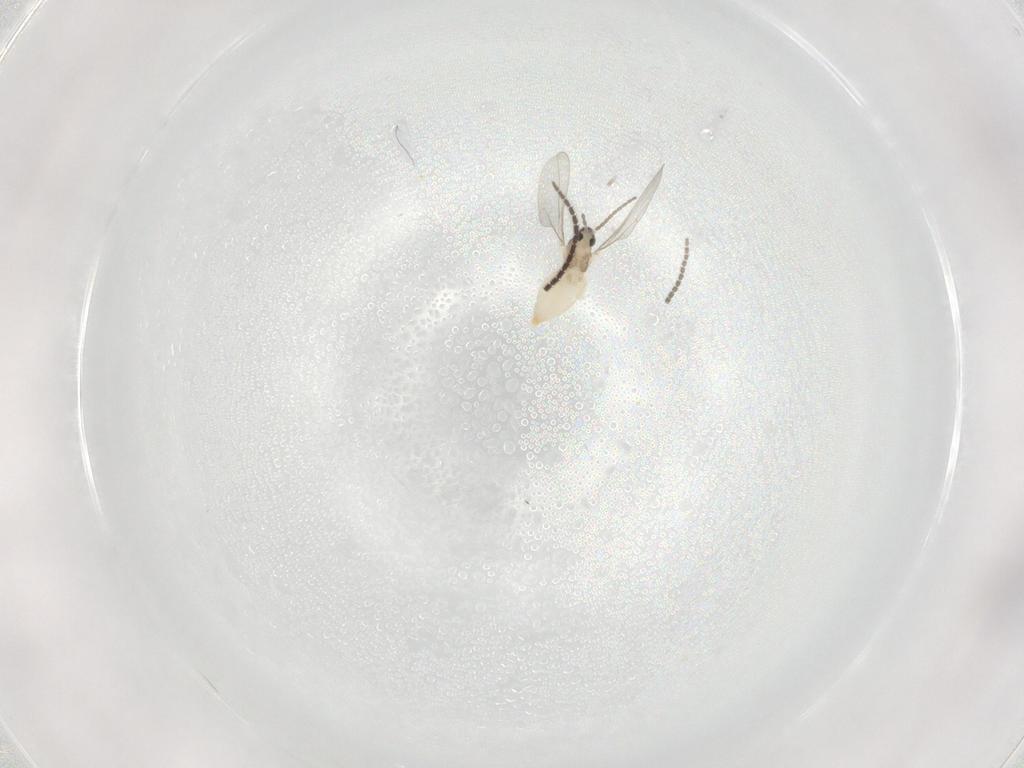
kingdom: Animalia
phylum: Arthropoda
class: Insecta
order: Diptera
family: Cecidomyiidae
